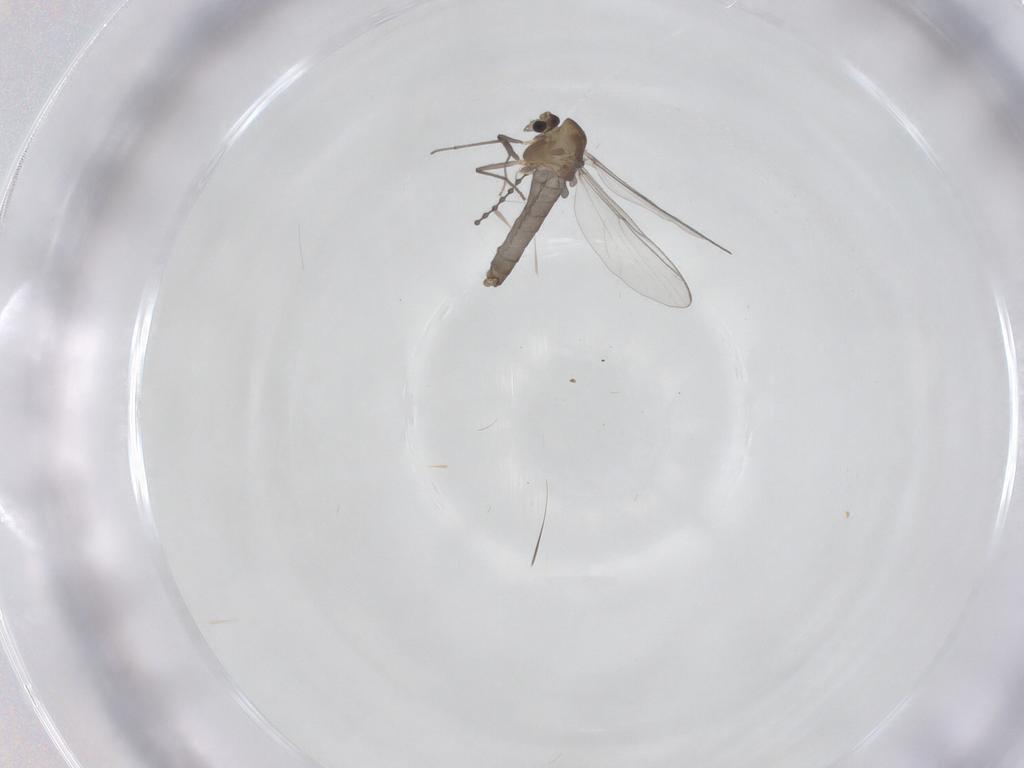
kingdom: Animalia
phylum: Arthropoda
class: Insecta
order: Diptera
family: Chironomidae
